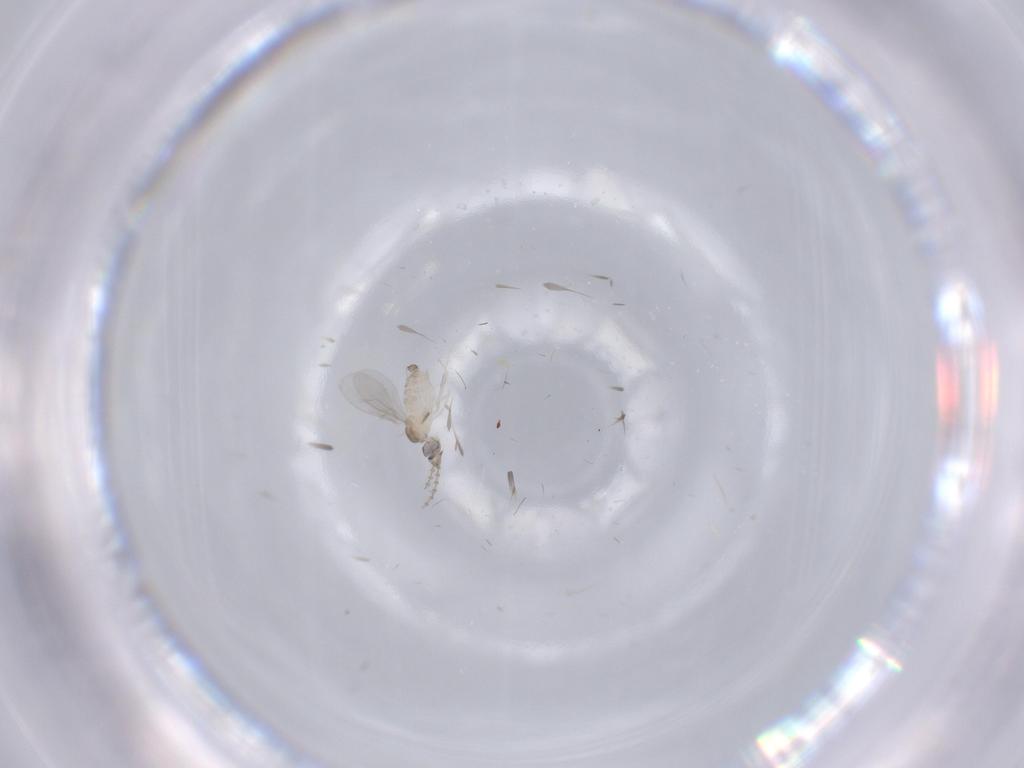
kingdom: Animalia
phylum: Arthropoda
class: Insecta
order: Diptera
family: Cecidomyiidae
